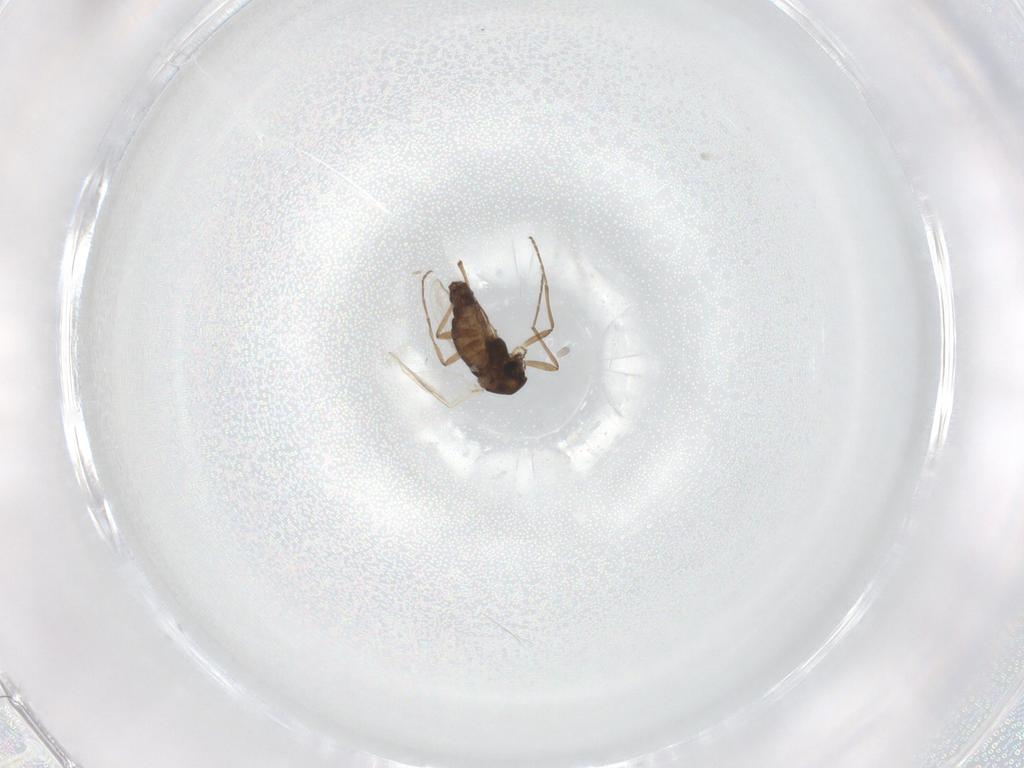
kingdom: Animalia
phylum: Arthropoda
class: Insecta
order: Diptera
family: Chironomidae
